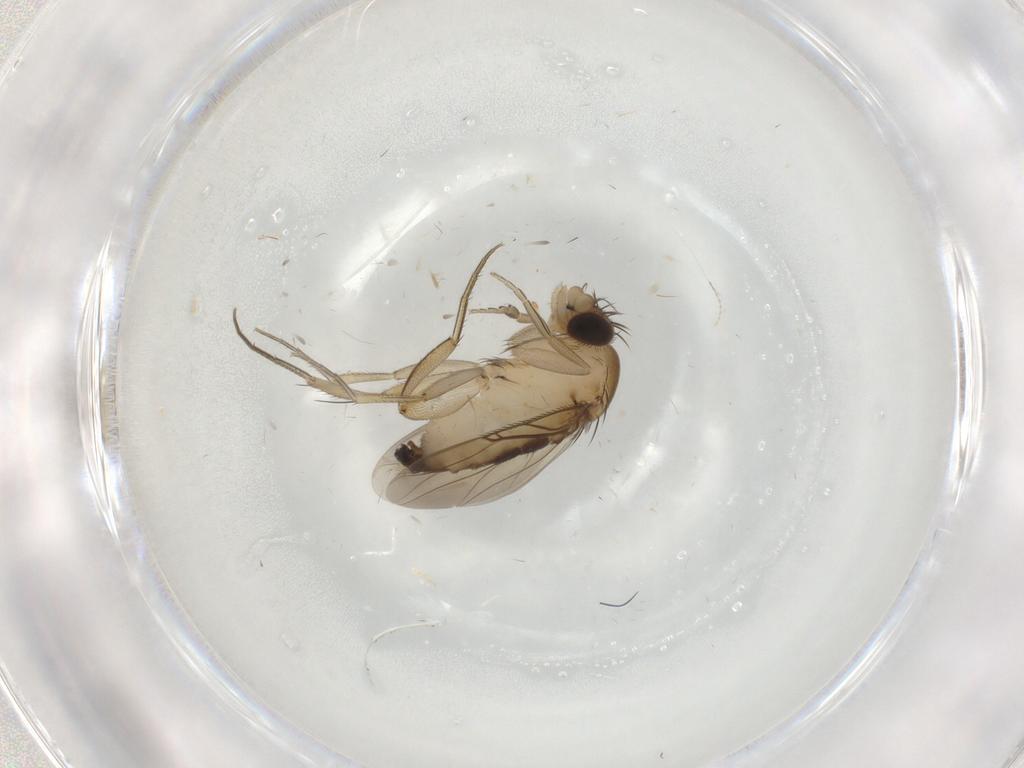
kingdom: Animalia
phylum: Arthropoda
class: Insecta
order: Diptera
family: Phoridae
